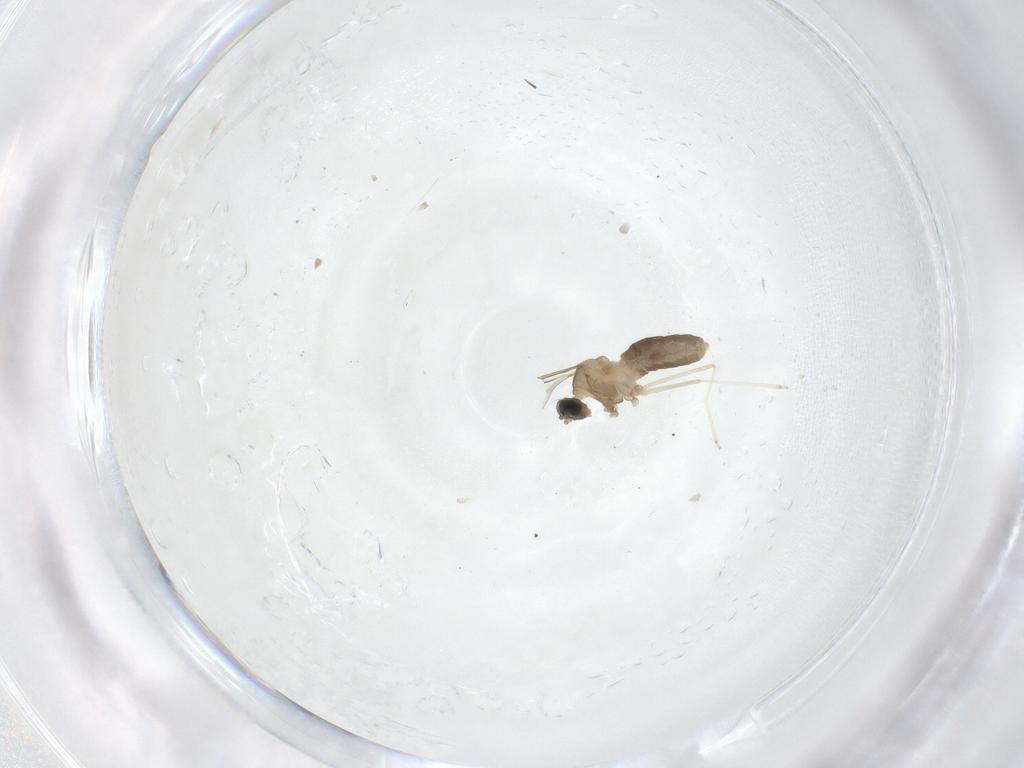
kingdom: Animalia
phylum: Arthropoda
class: Insecta
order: Diptera
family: Cecidomyiidae
